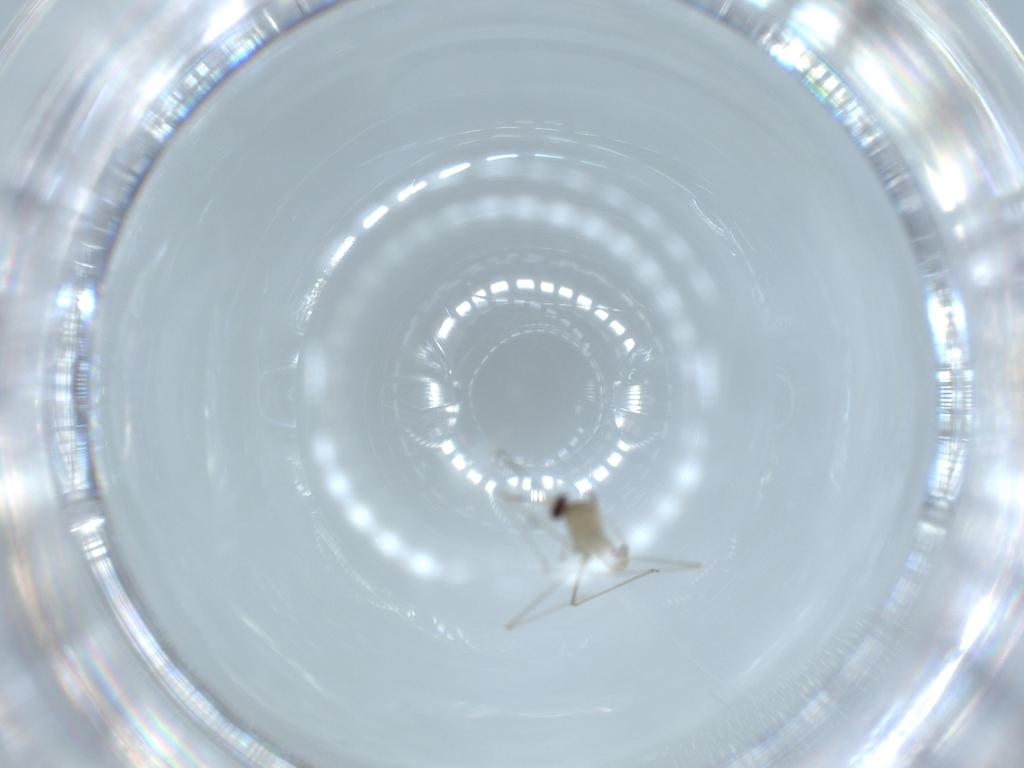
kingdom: Animalia
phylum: Arthropoda
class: Insecta
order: Diptera
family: Cecidomyiidae
